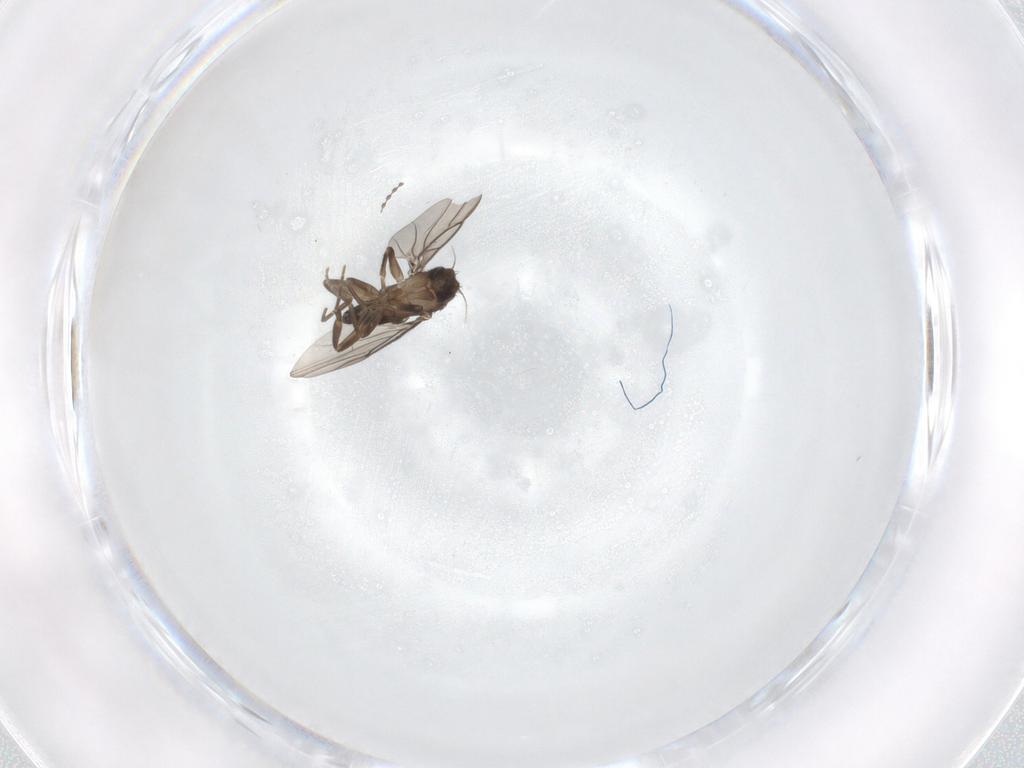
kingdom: Animalia
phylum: Arthropoda
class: Insecta
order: Diptera
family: Phoridae
